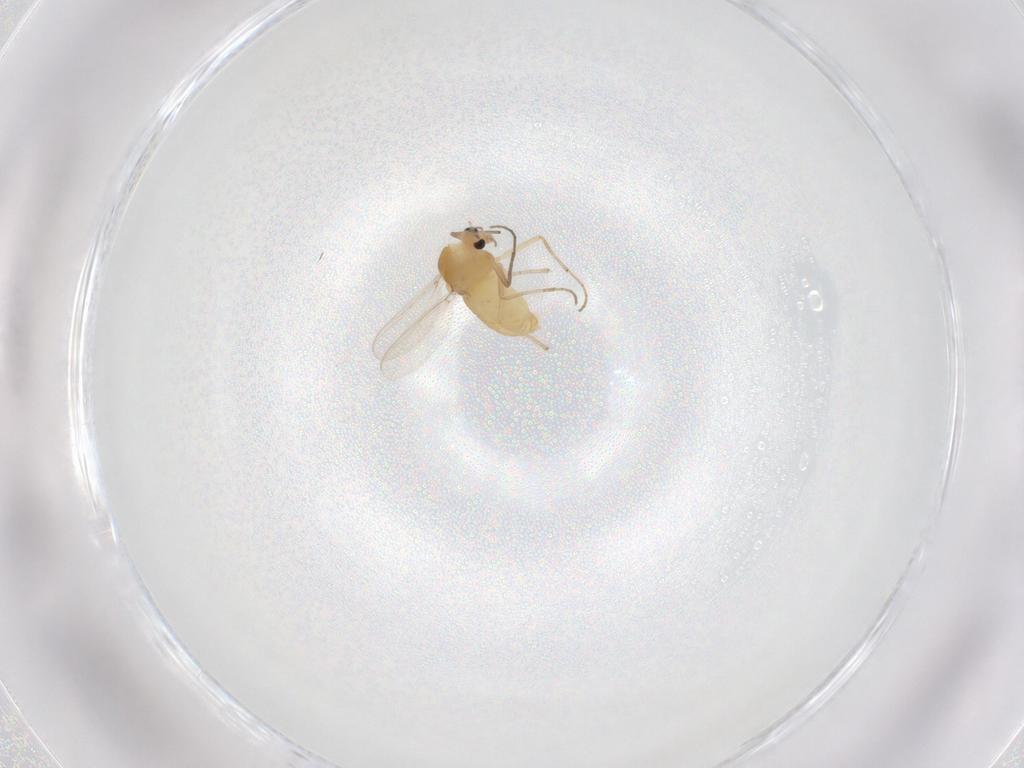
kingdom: Animalia
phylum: Arthropoda
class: Insecta
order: Diptera
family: Chironomidae
